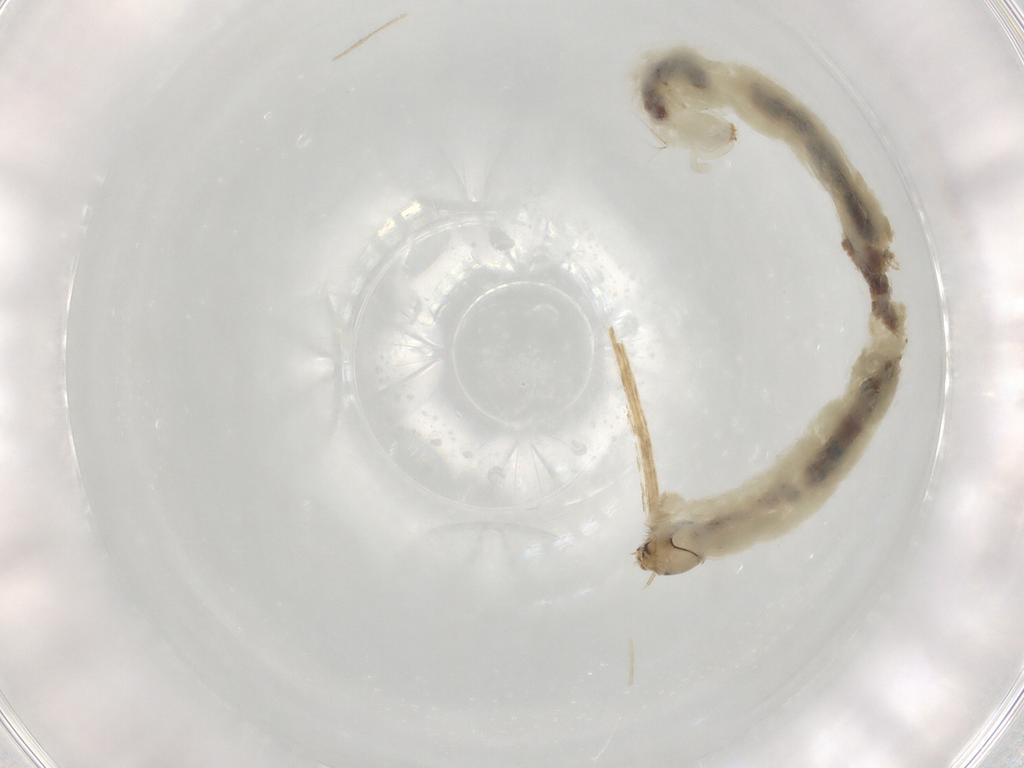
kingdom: Animalia
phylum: Arthropoda
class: Insecta
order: Diptera
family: Chironomidae
